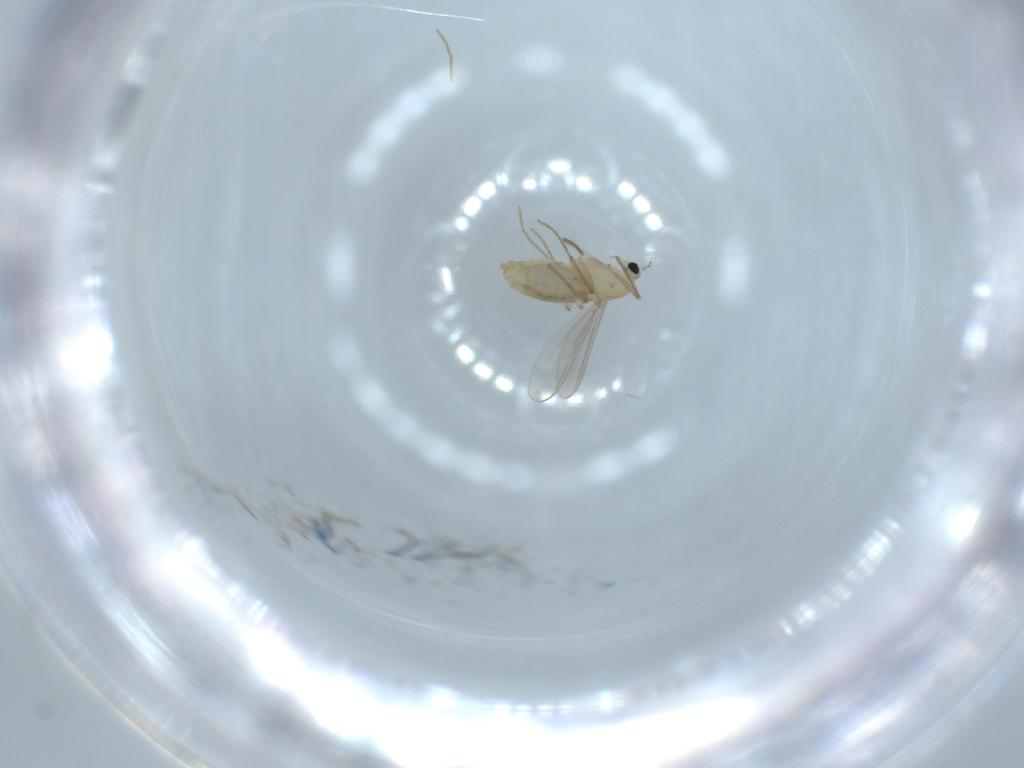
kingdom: Animalia
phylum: Arthropoda
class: Insecta
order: Diptera
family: Chironomidae
